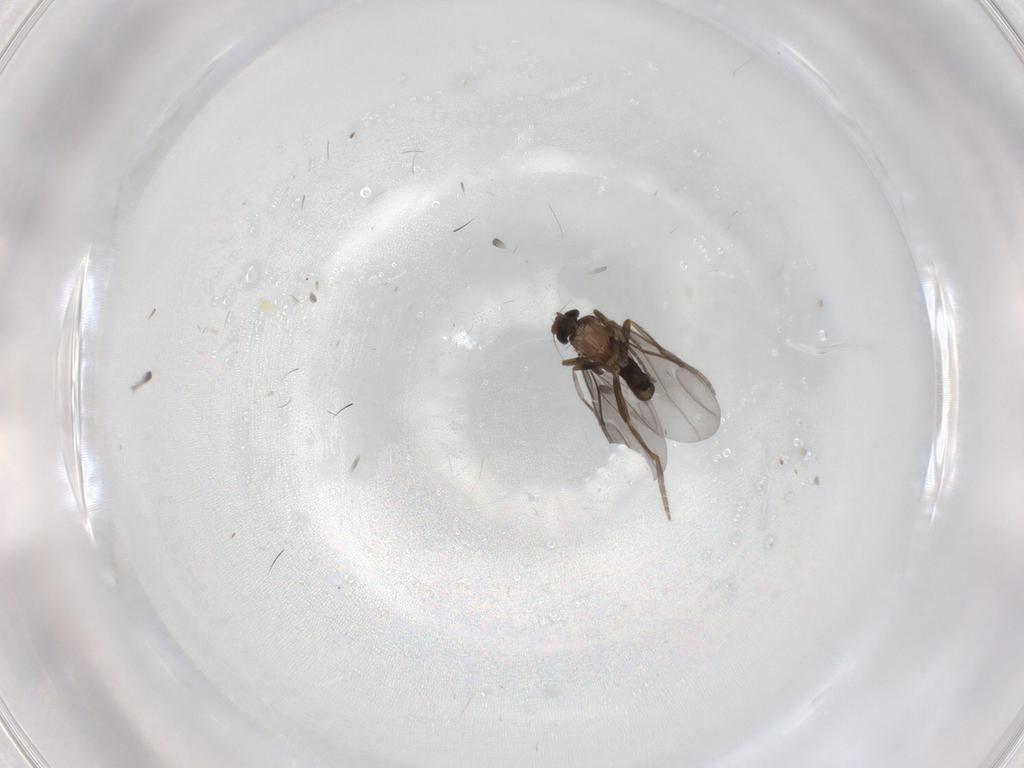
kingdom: Animalia
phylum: Arthropoda
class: Insecta
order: Diptera
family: Phoridae
